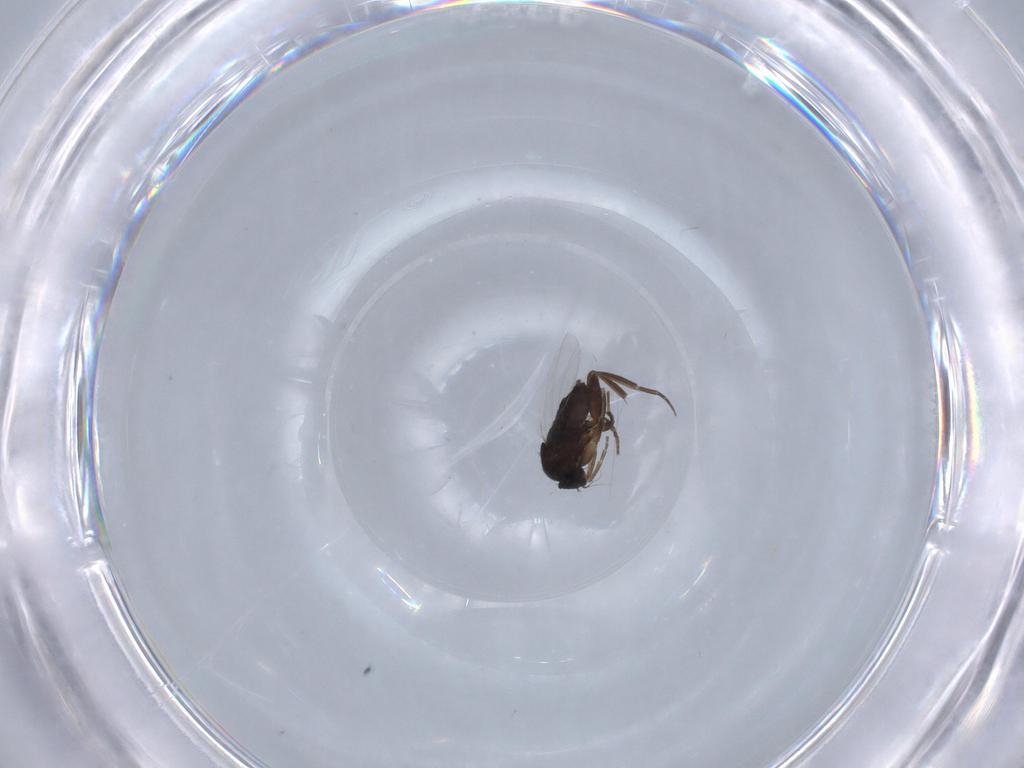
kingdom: Animalia
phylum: Arthropoda
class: Insecta
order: Diptera
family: Phoridae
